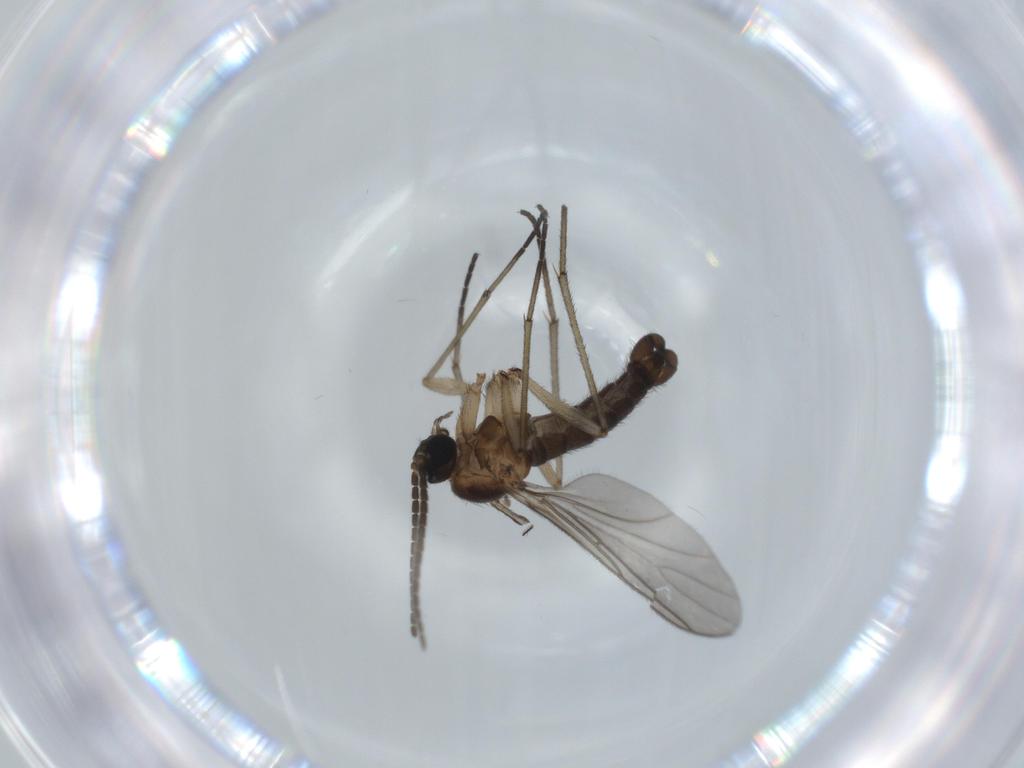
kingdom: Animalia
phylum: Arthropoda
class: Insecta
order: Diptera
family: Sciaridae
